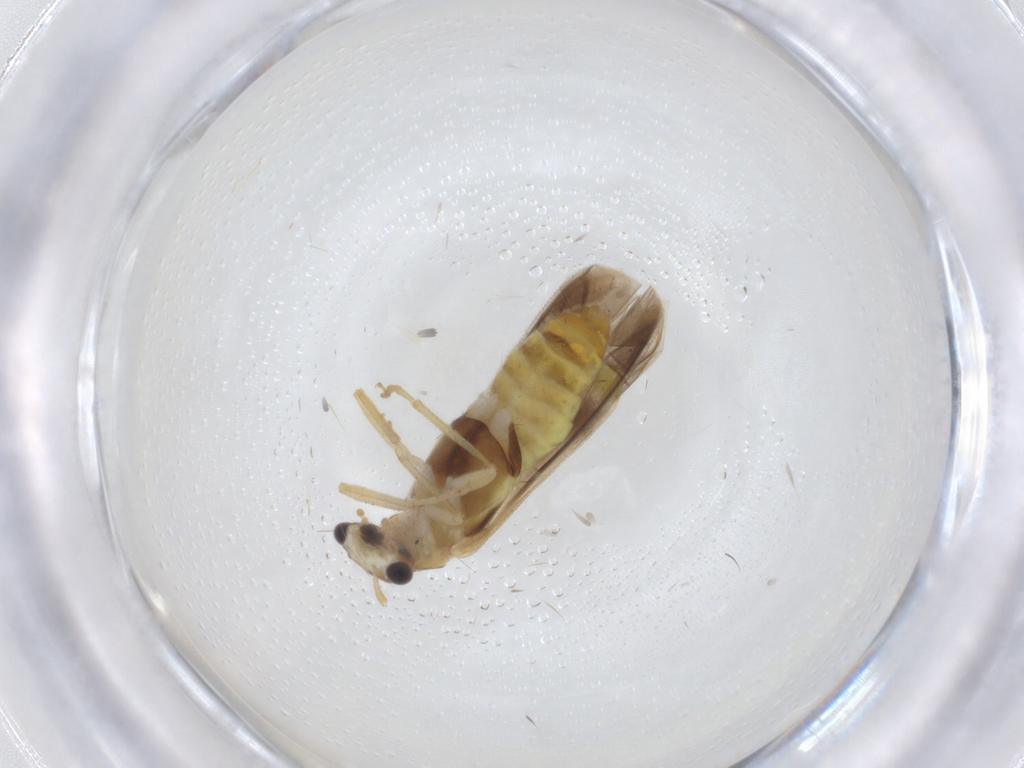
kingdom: Animalia
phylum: Arthropoda
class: Insecta
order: Coleoptera
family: Cantharidae
